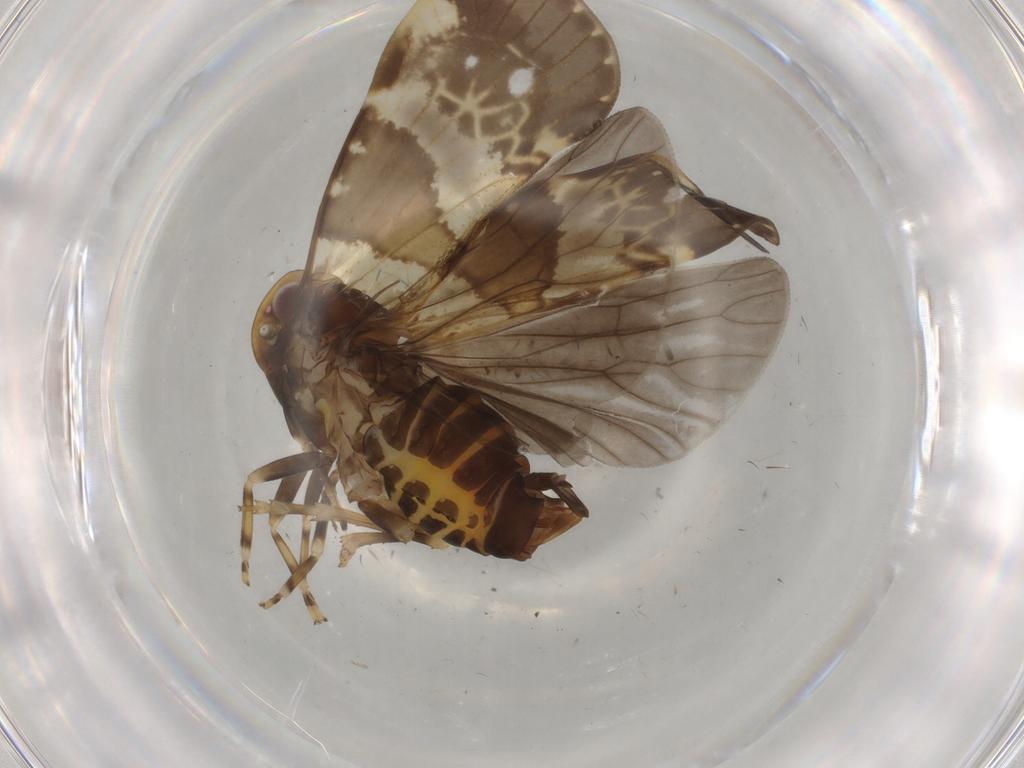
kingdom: Animalia
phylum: Arthropoda
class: Insecta
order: Hemiptera
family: Cixiidae
